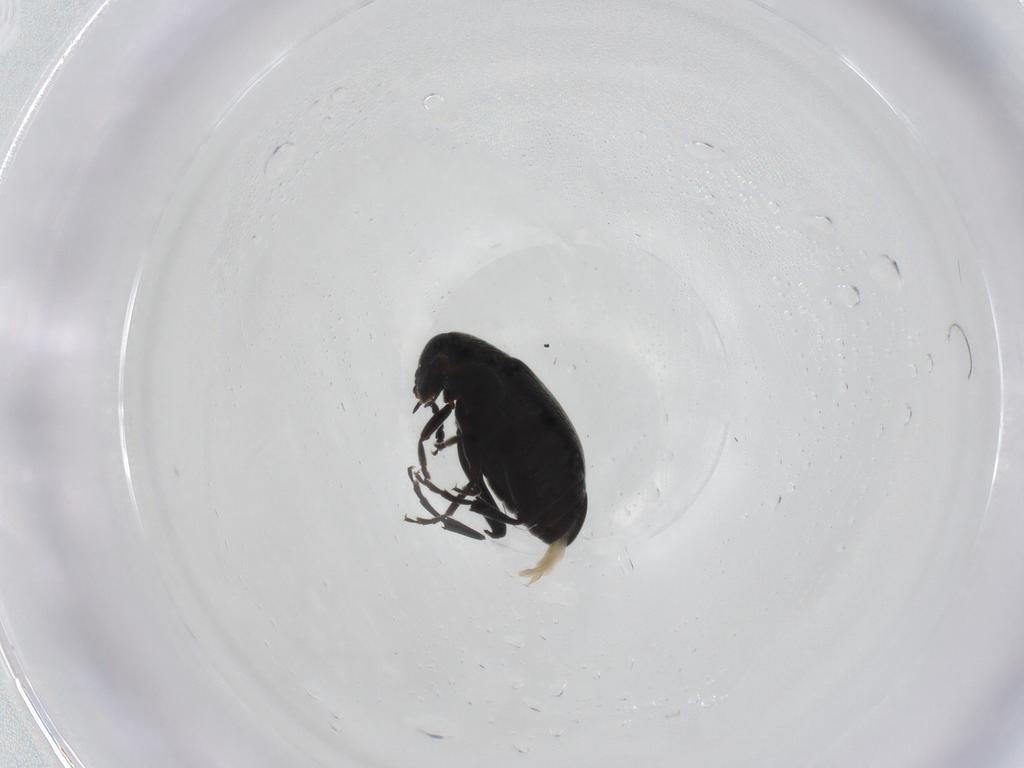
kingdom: Animalia
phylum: Arthropoda
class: Insecta
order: Coleoptera
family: Chrysomelidae
